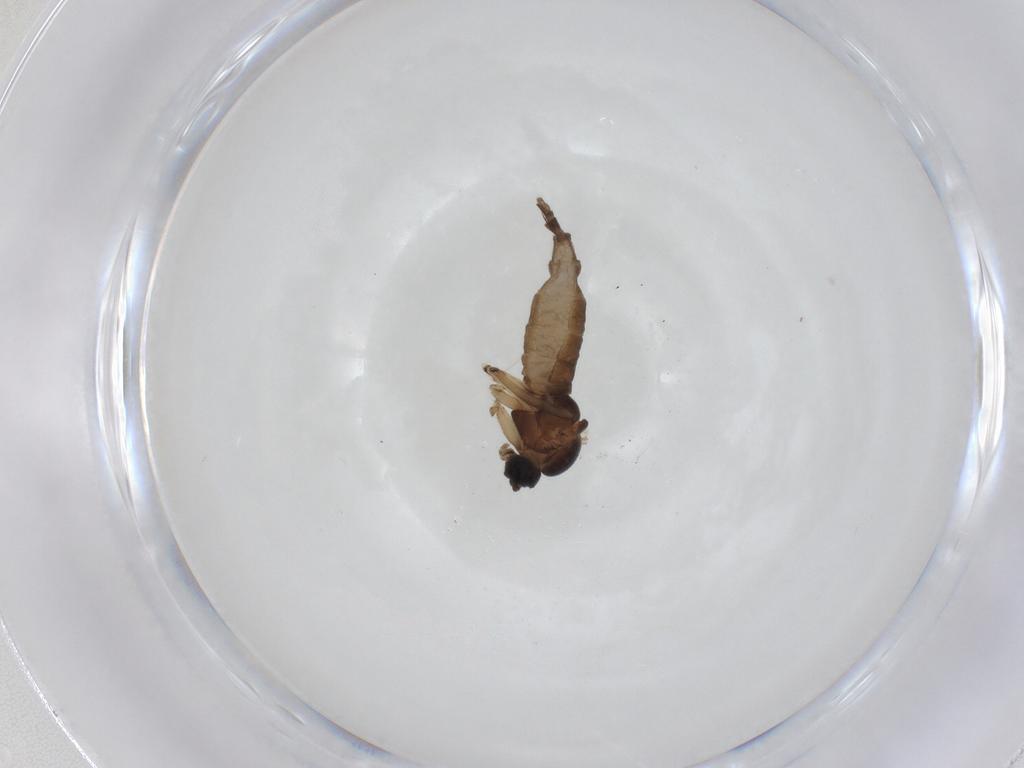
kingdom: Animalia
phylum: Arthropoda
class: Insecta
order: Diptera
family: Sciaridae
